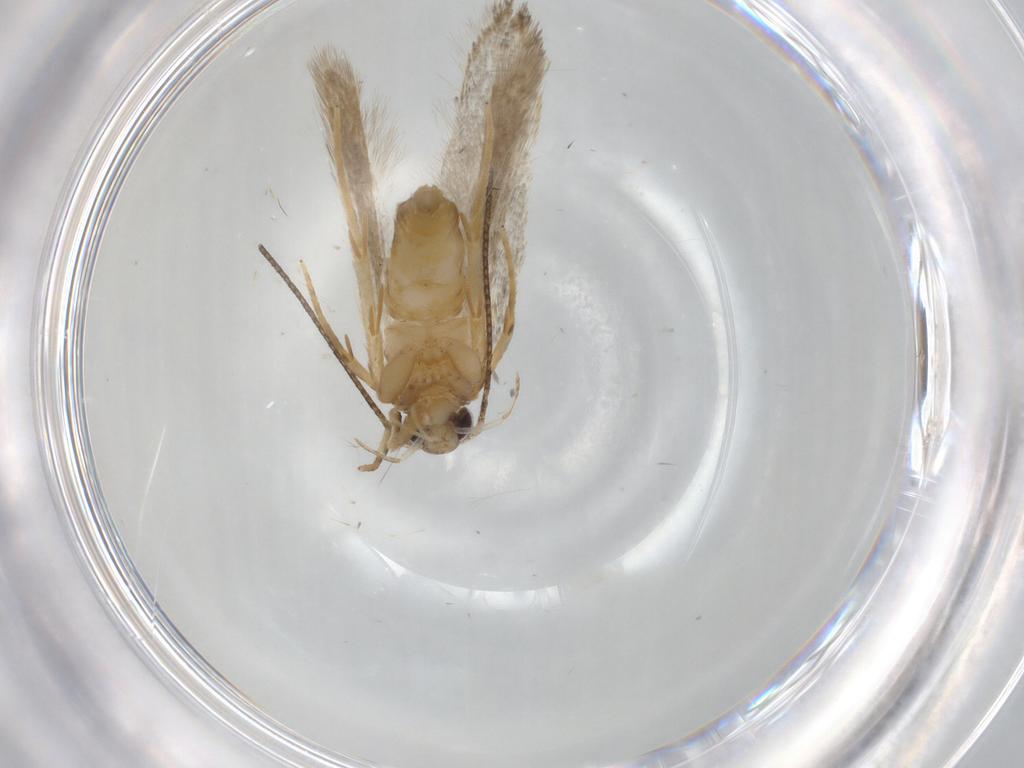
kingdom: Animalia
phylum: Arthropoda
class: Insecta
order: Lepidoptera
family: Autostichidae
